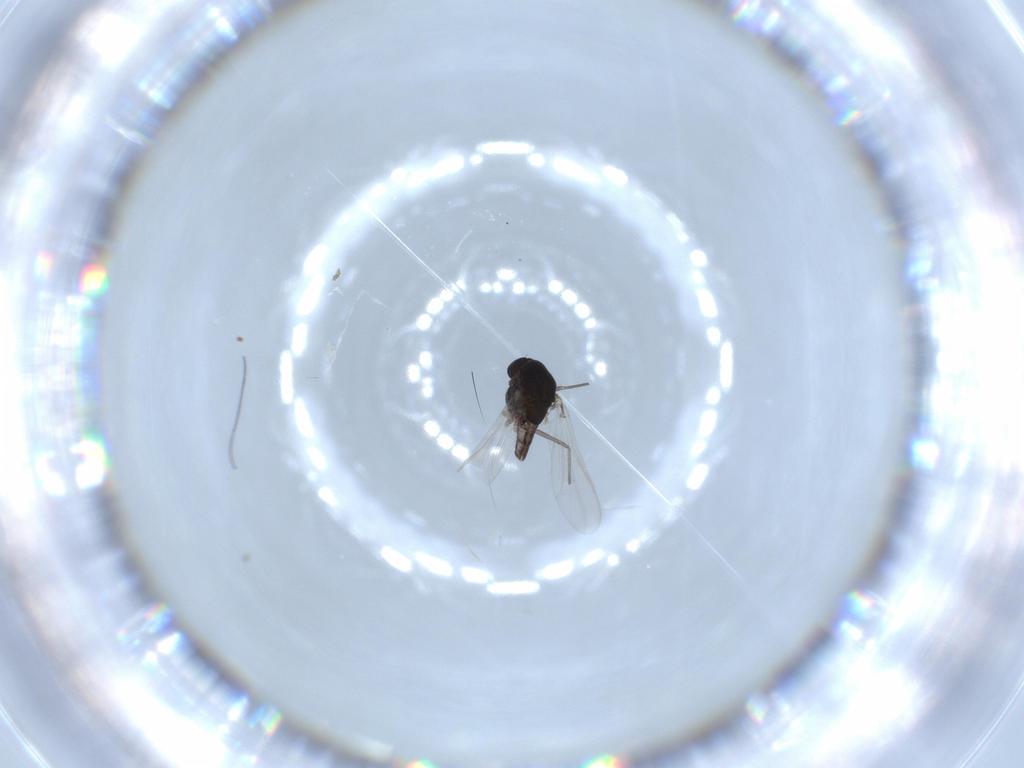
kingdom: Animalia
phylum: Arthropoda
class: Insecta
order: Diptera
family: Chironomidae
